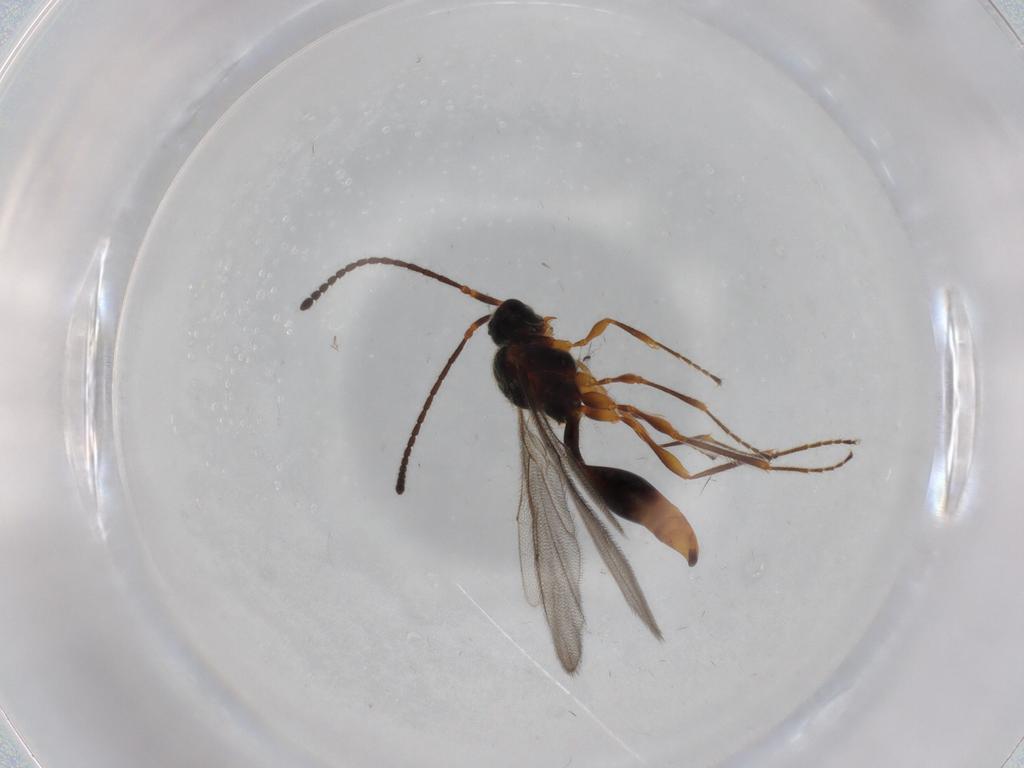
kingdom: Animalia
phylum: Arthropoda
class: Insecta
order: Hymenoptera
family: Diapriidae
